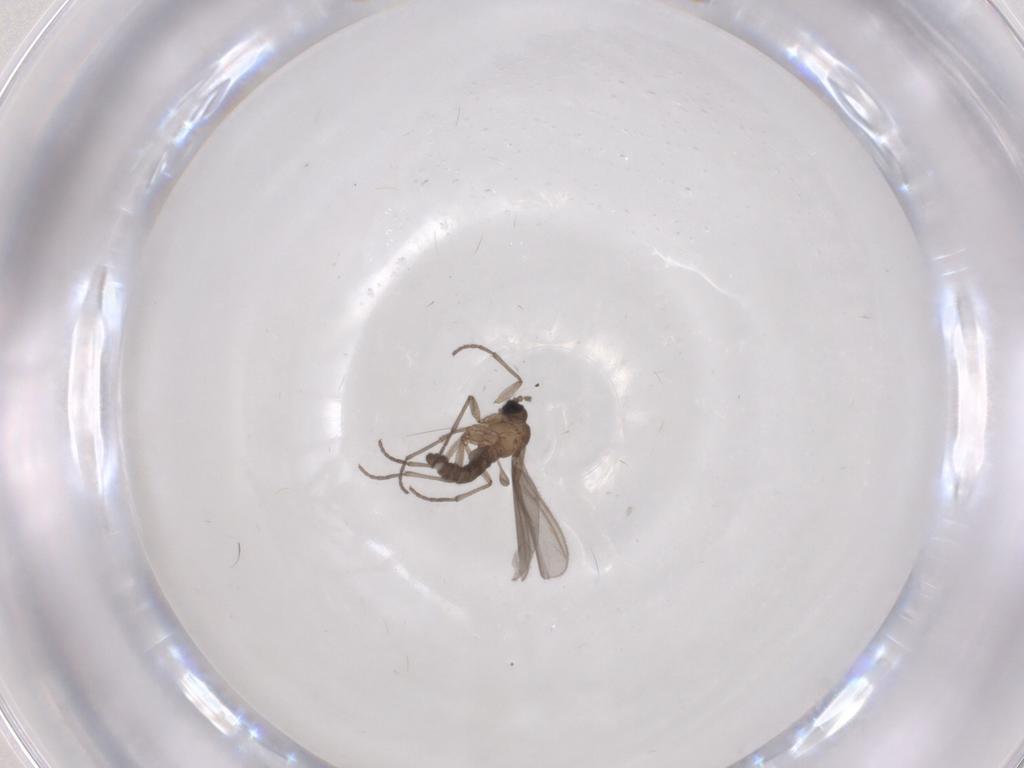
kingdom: Animalia
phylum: Arthropoda
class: Insecta
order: Diptera
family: Sciaridae
